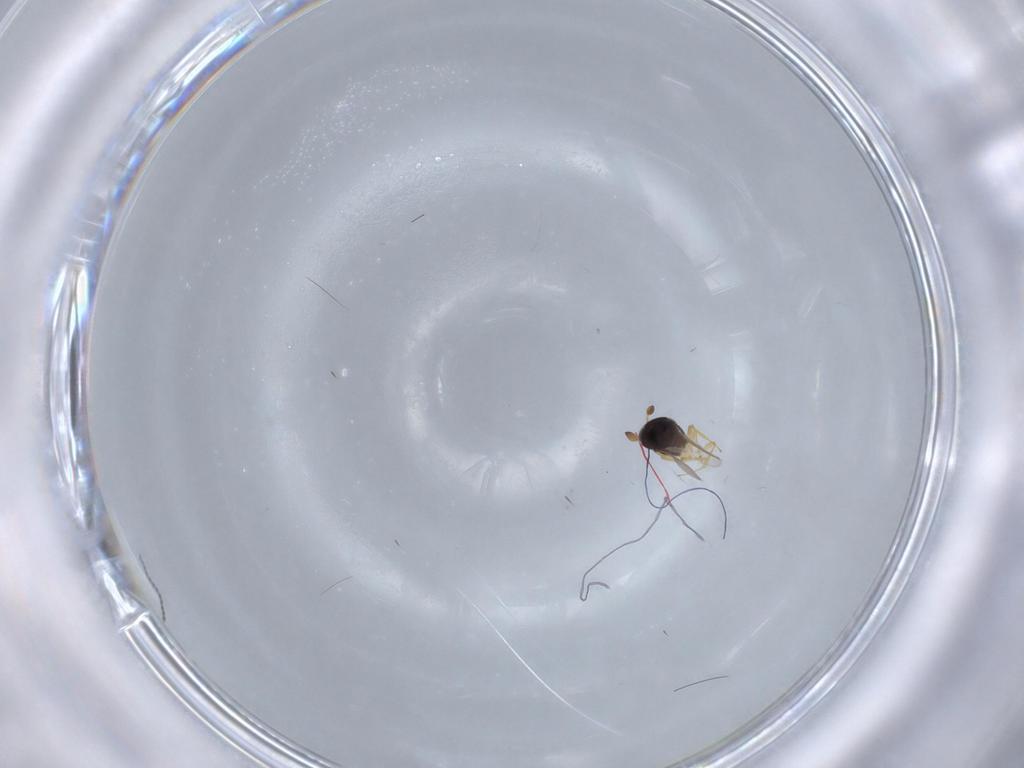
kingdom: Animalia
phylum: Arthropoda
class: Insecta
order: Hymenoptera
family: Scelionidae
